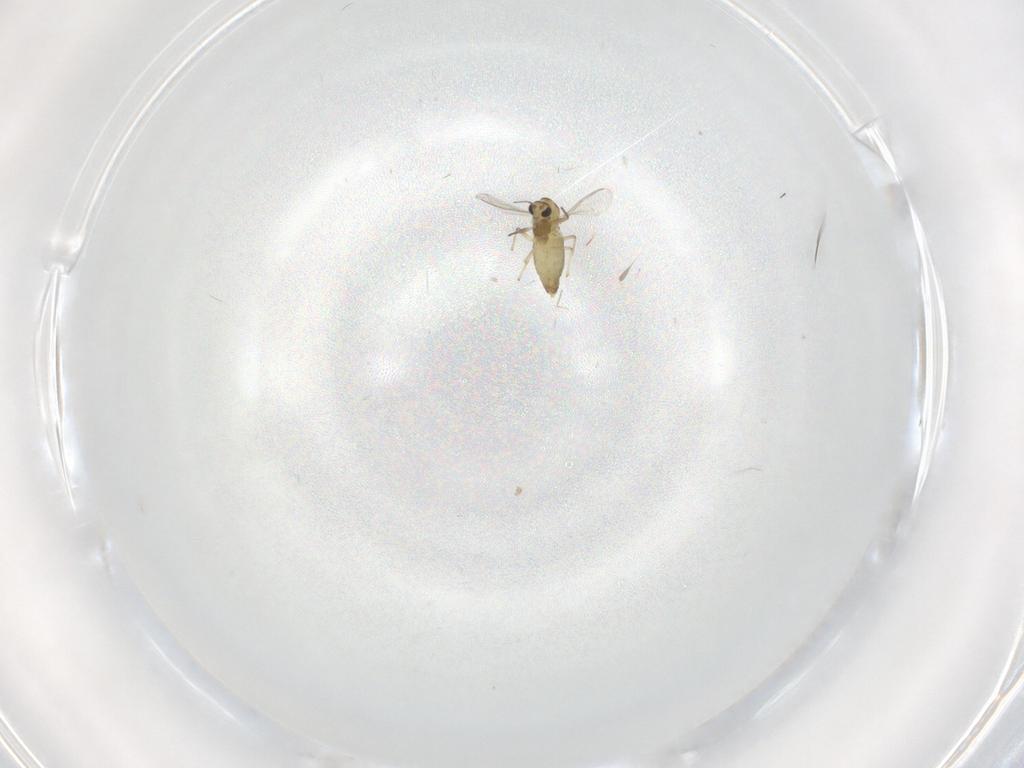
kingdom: Animalia
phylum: Arthropoda
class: Insecta
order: Diptera
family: Chironomidae
